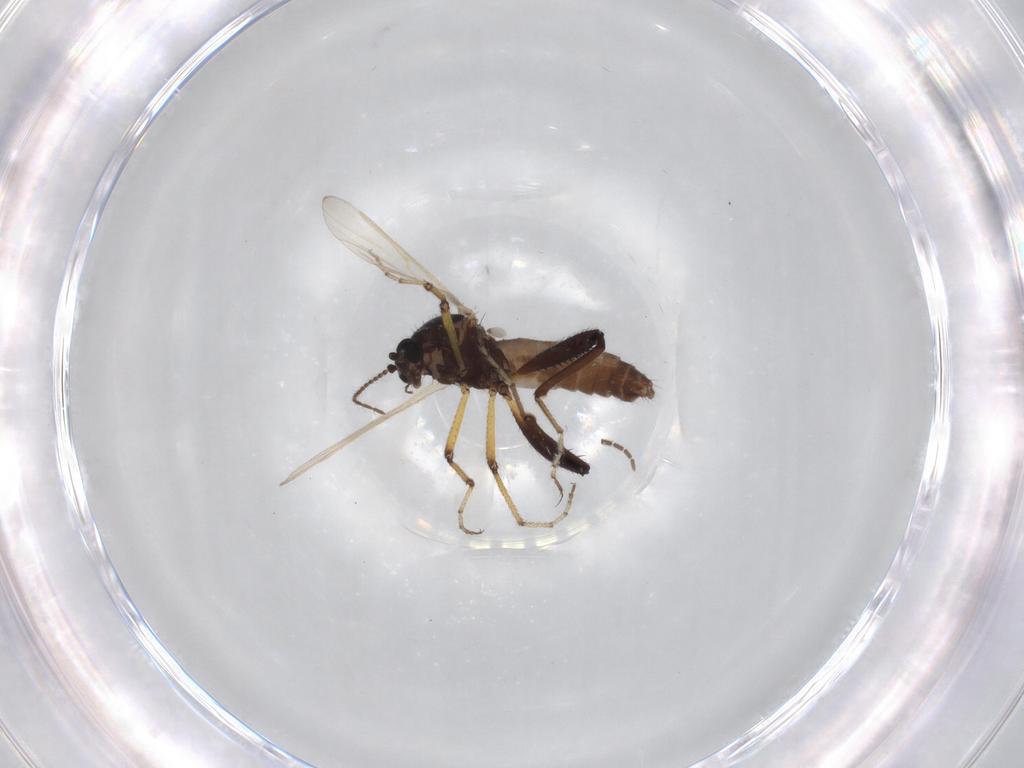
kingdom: Animalia
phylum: Arthropoda
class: Insecta
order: Diptera
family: Ceratopogonidae
